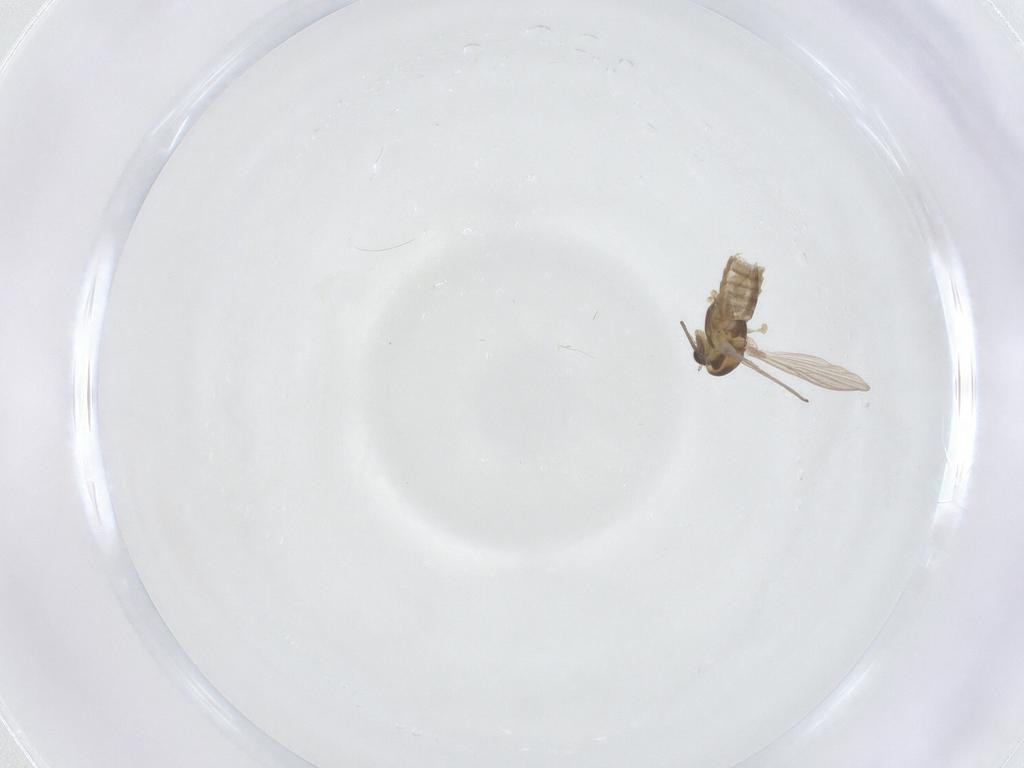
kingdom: Animalia
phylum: Arthropoda
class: Insecta
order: Diptera
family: Chironomidae
